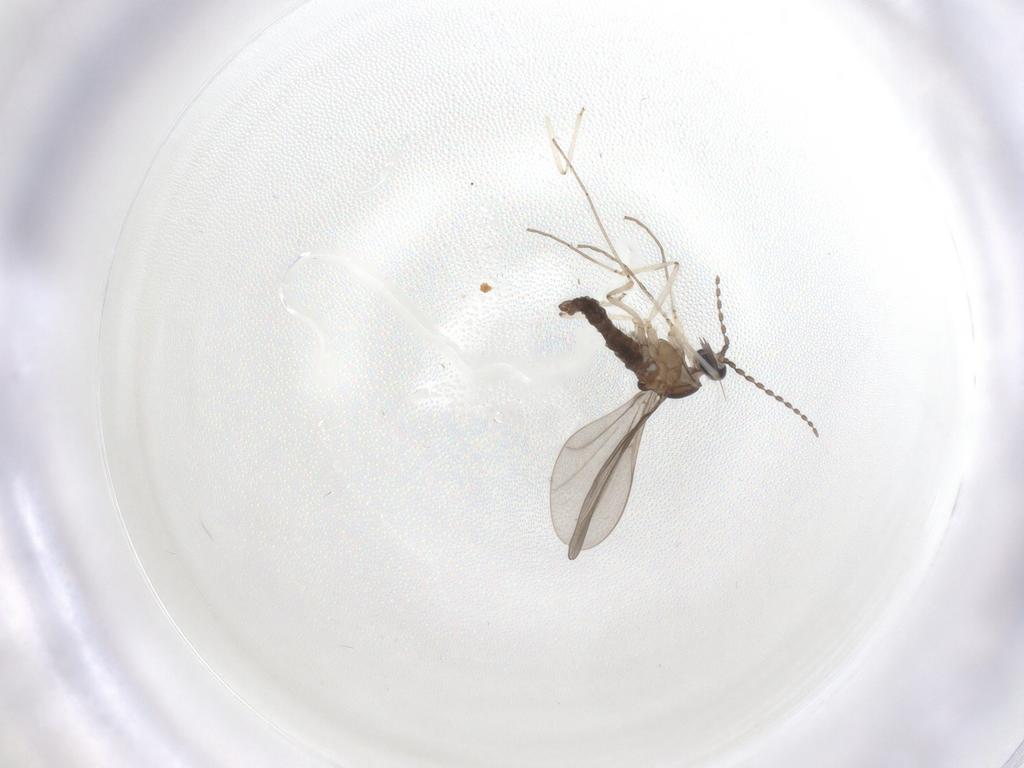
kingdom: Animalia
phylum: Arthropoda
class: Insecta
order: Diptera
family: Cecidomyiidae
